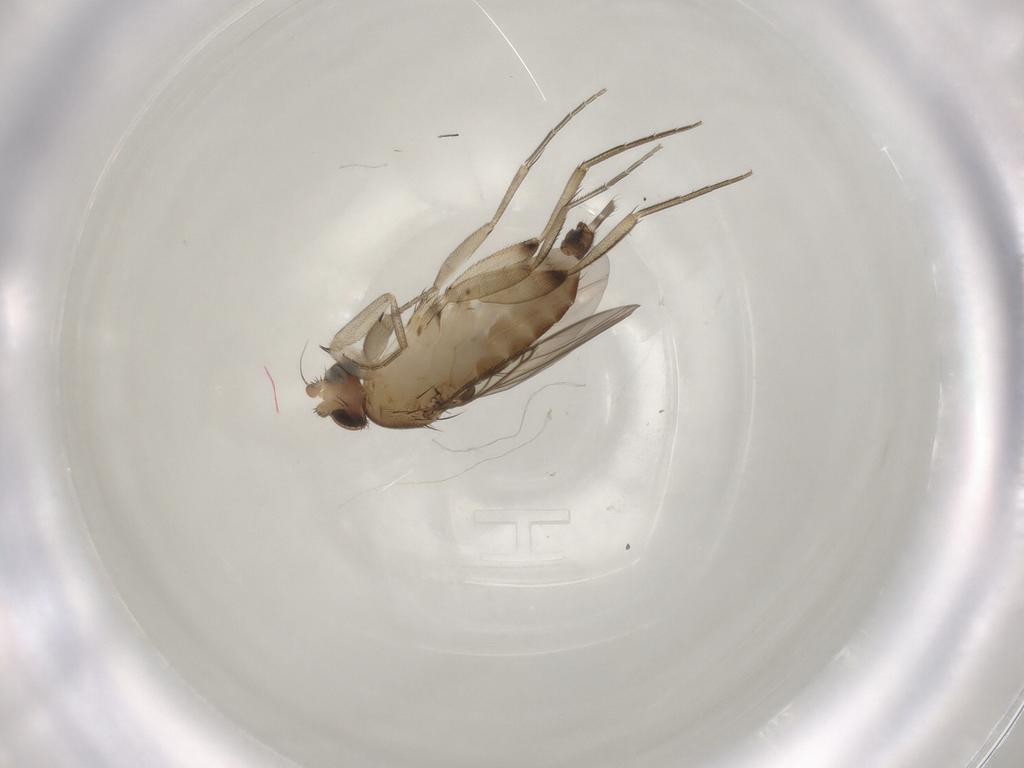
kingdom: Animalia
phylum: Arthropoda
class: Insecta
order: Diptera
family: Phoridae
